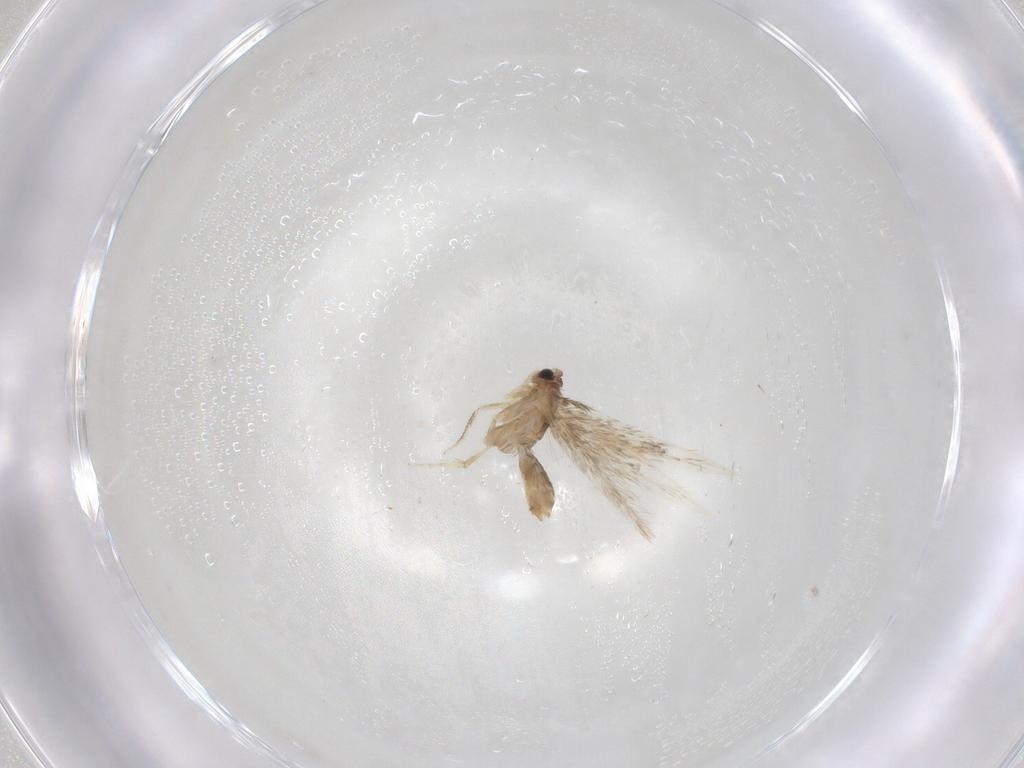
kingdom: Animalia
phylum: Arthropoda
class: Insecta
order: Lepidoptera
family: Nepticulidae
